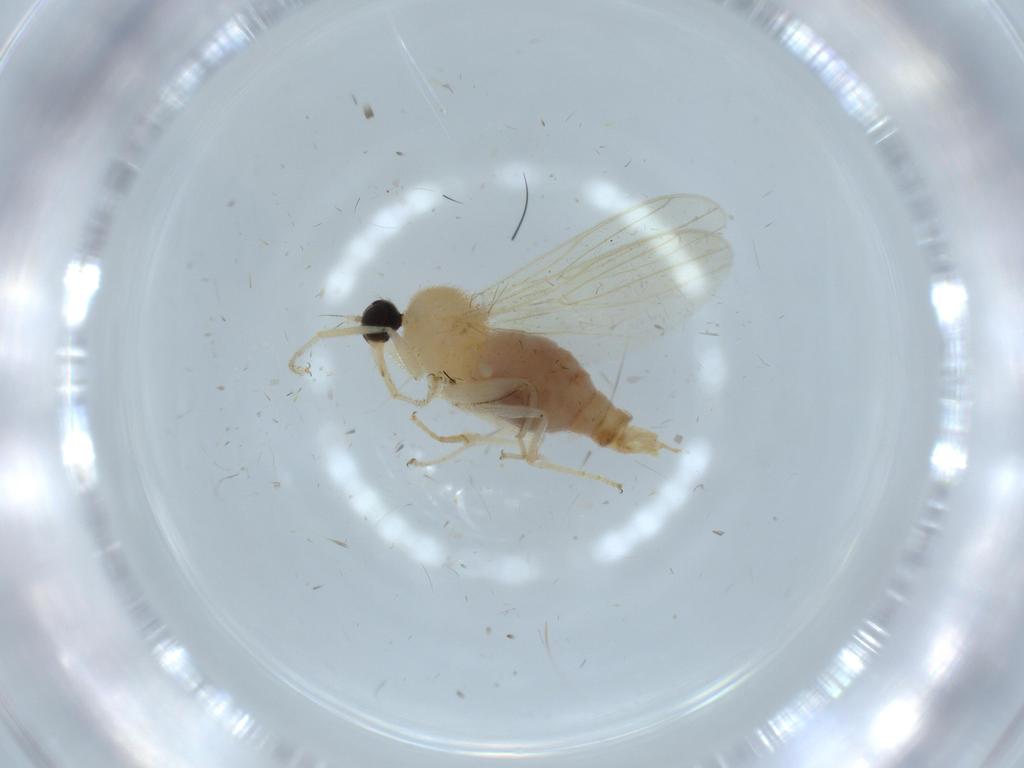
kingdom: Animalia
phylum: Arthropoda
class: Insecta
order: Diptera
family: Hybotidae
